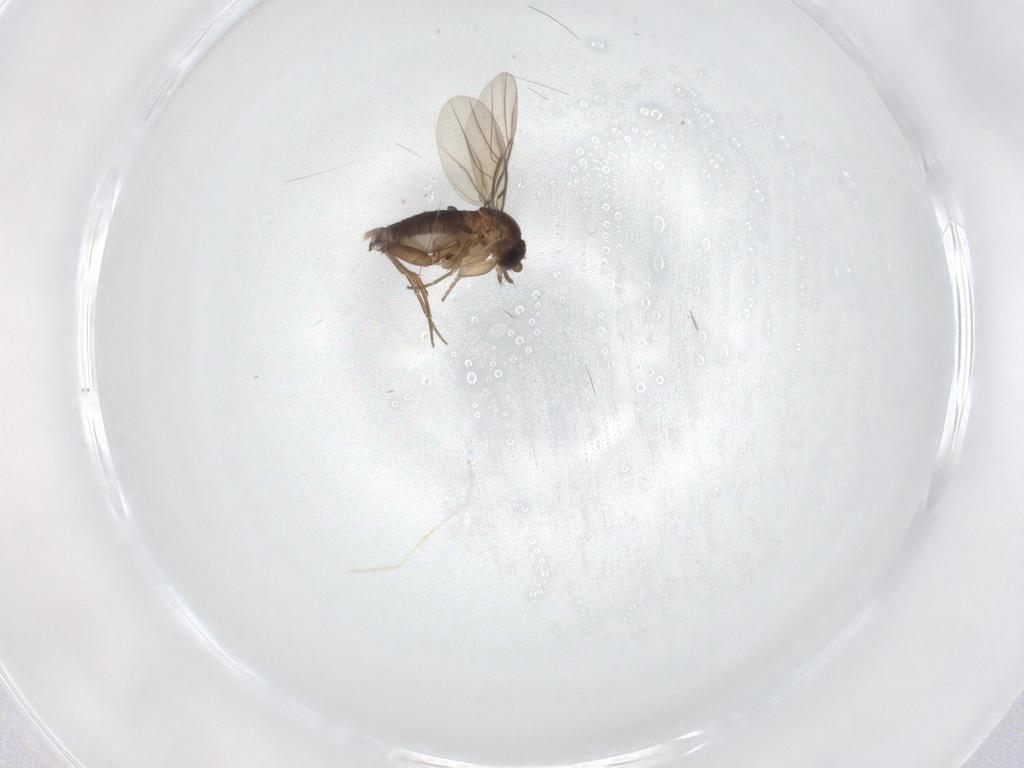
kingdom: Animalia
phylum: Arthropoda
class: Insecta
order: Diptera
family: Phoridae
